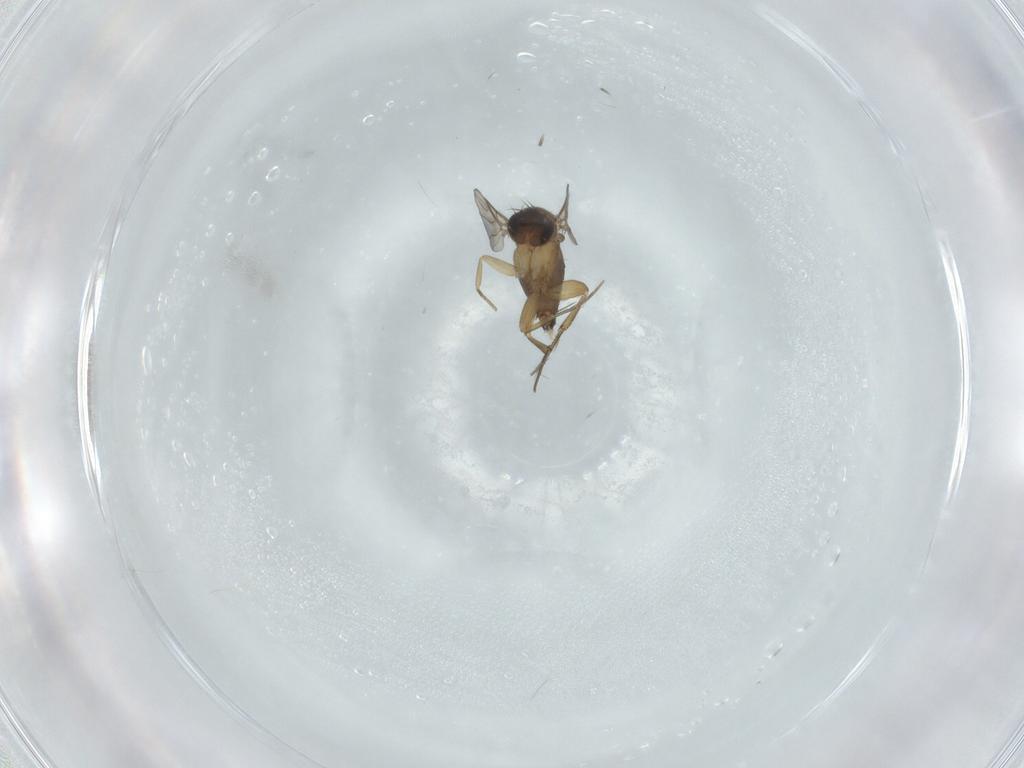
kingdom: Animalia
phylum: Arthropoda
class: Insecta
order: Diptera
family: Phoridae
